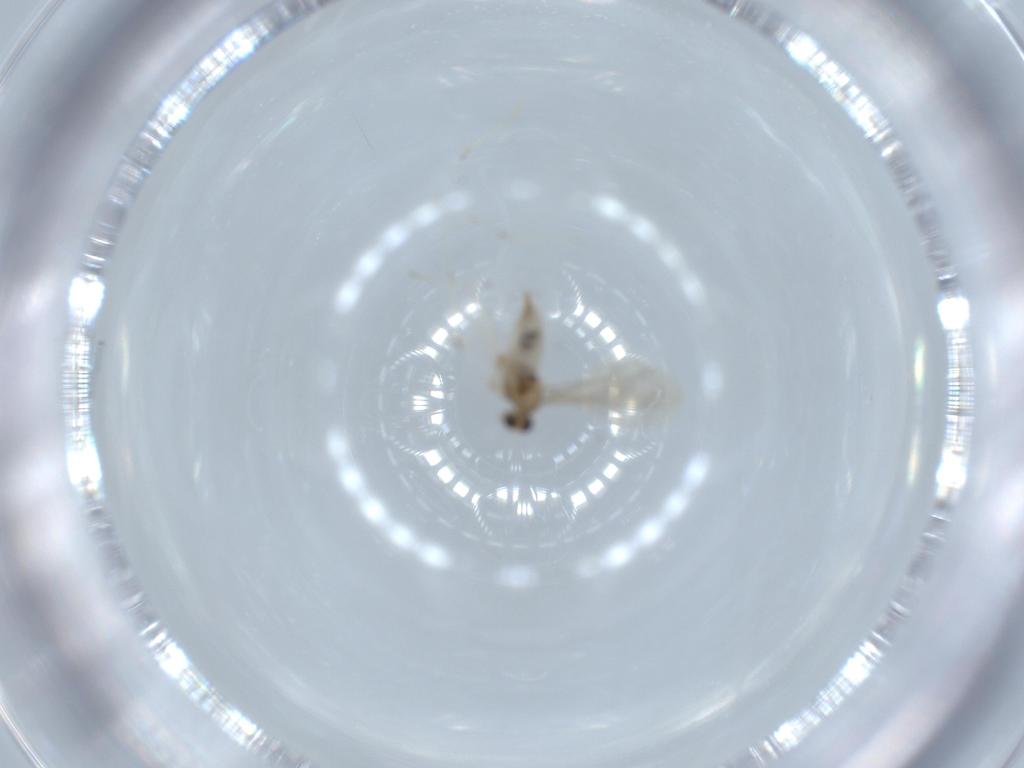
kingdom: Animalia
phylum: Arthropoda
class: Insecta
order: Diptera
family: Cecidomyiidae
